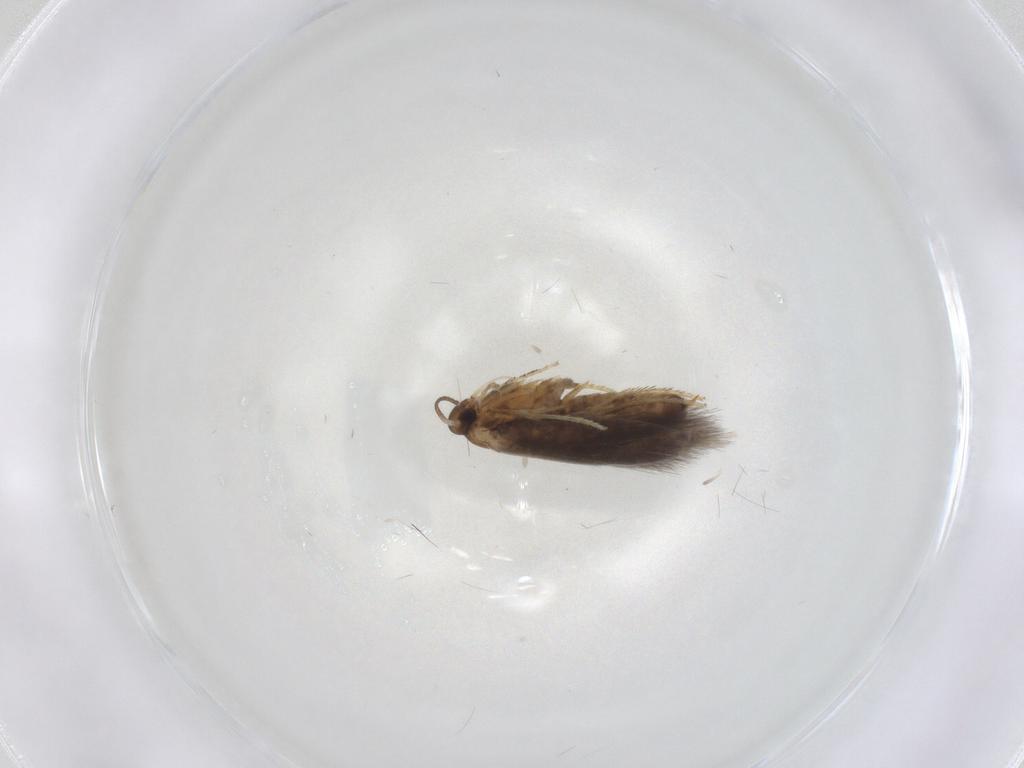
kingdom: Animalia
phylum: Arthropoda
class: Insecta
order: Lepidoptera
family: Heliozelidae
